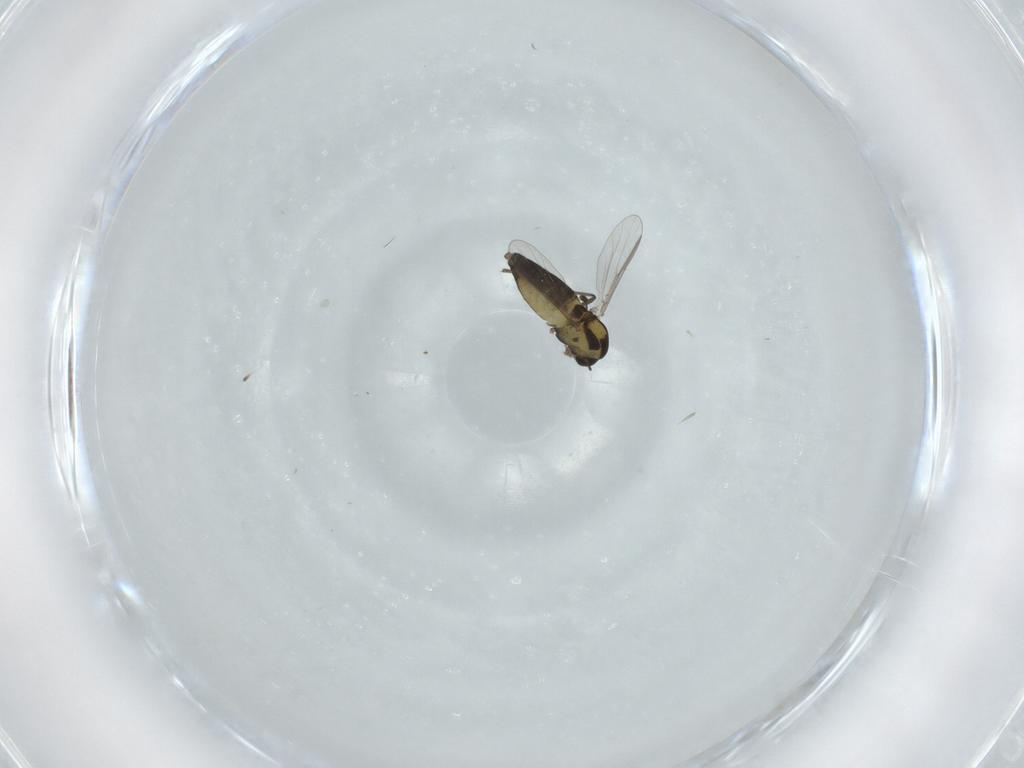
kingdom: Animalia
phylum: Arthropoda
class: Insecta
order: Diptera
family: Chironomidae
